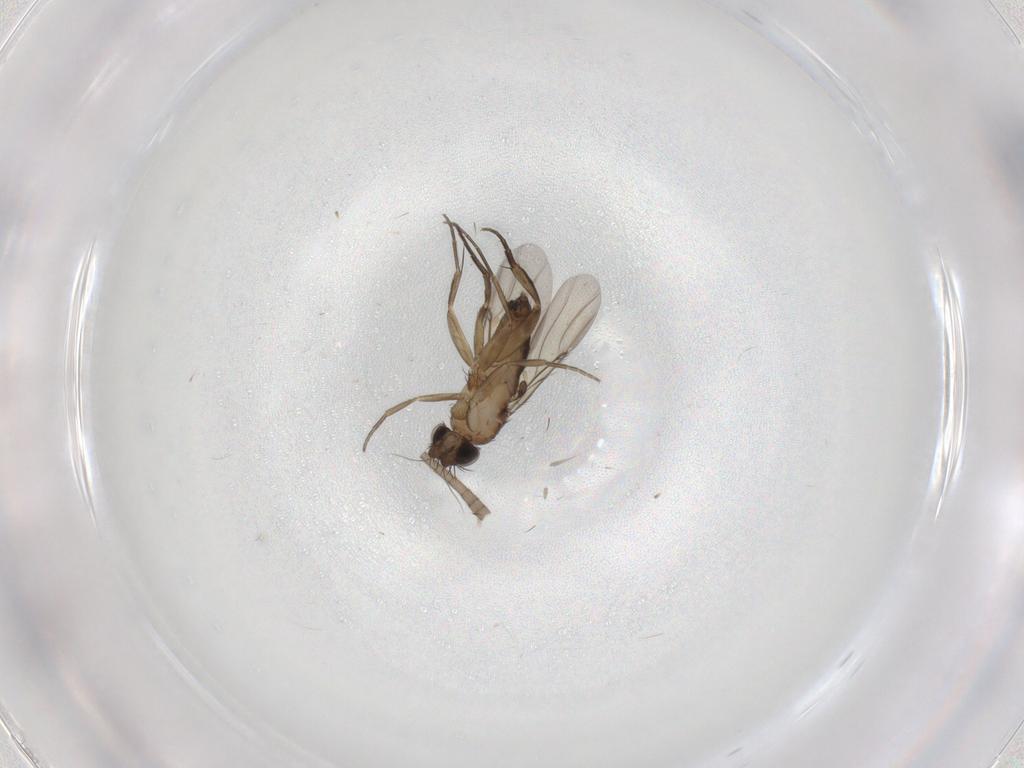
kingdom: Animalia
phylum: Arthropoda
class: Insecta
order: Diptera
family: Phoridae
